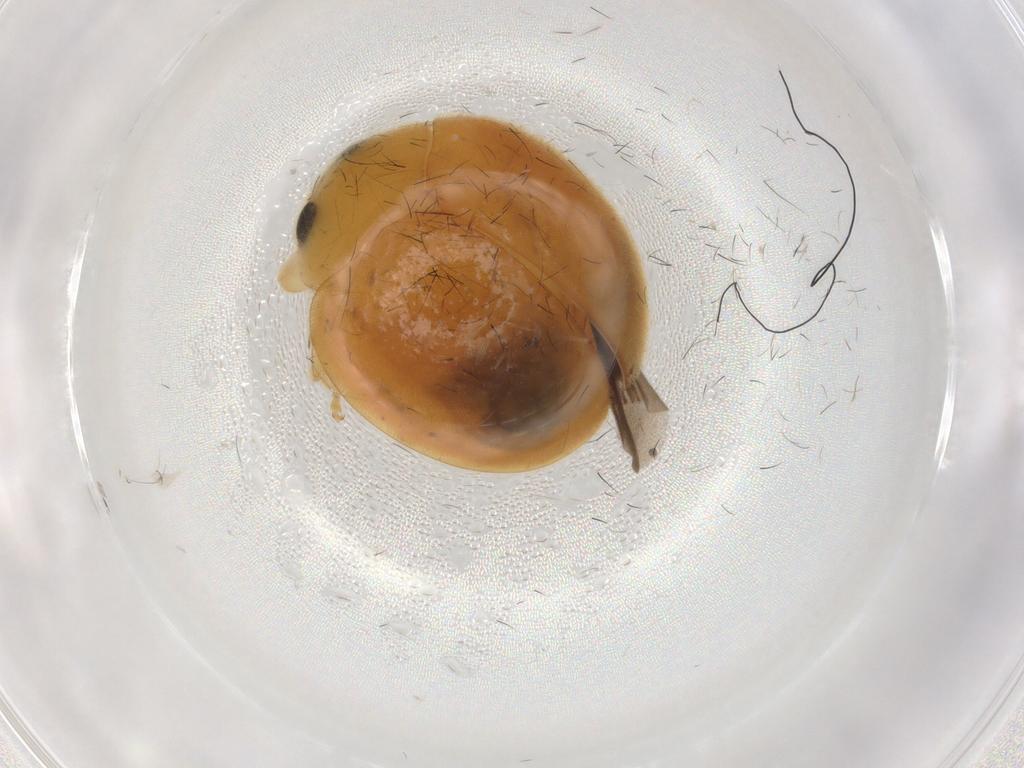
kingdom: Animalia
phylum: Arthropoda
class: Insecta
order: Coleoptera
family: Coccinellidae
